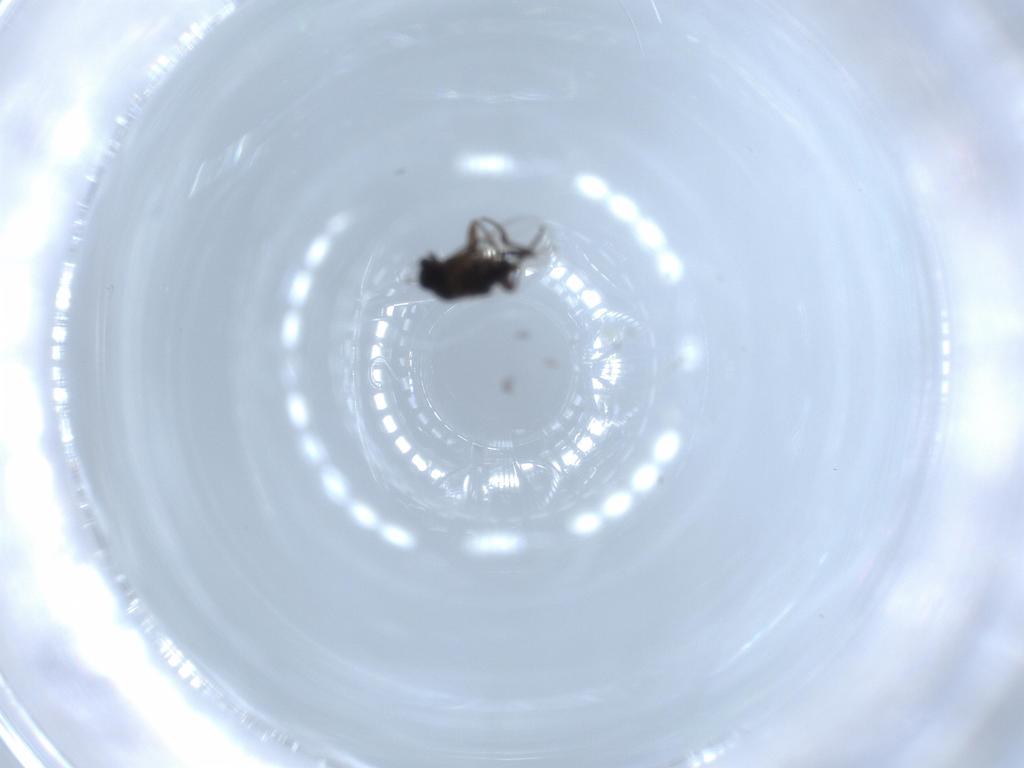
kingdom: Animalia
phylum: Arthropoda
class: Insecta
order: Diptera
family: Phoridae
